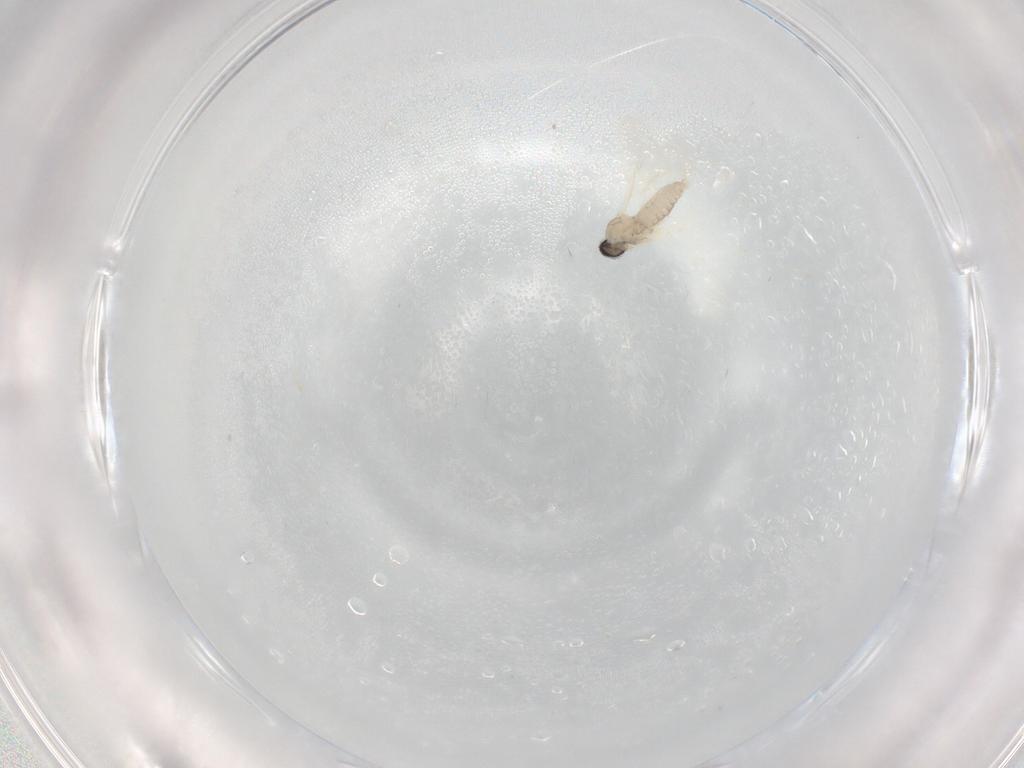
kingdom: Animalia
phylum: Arthropoda
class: Insecta
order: Diptera
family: Cecidomyiidae
